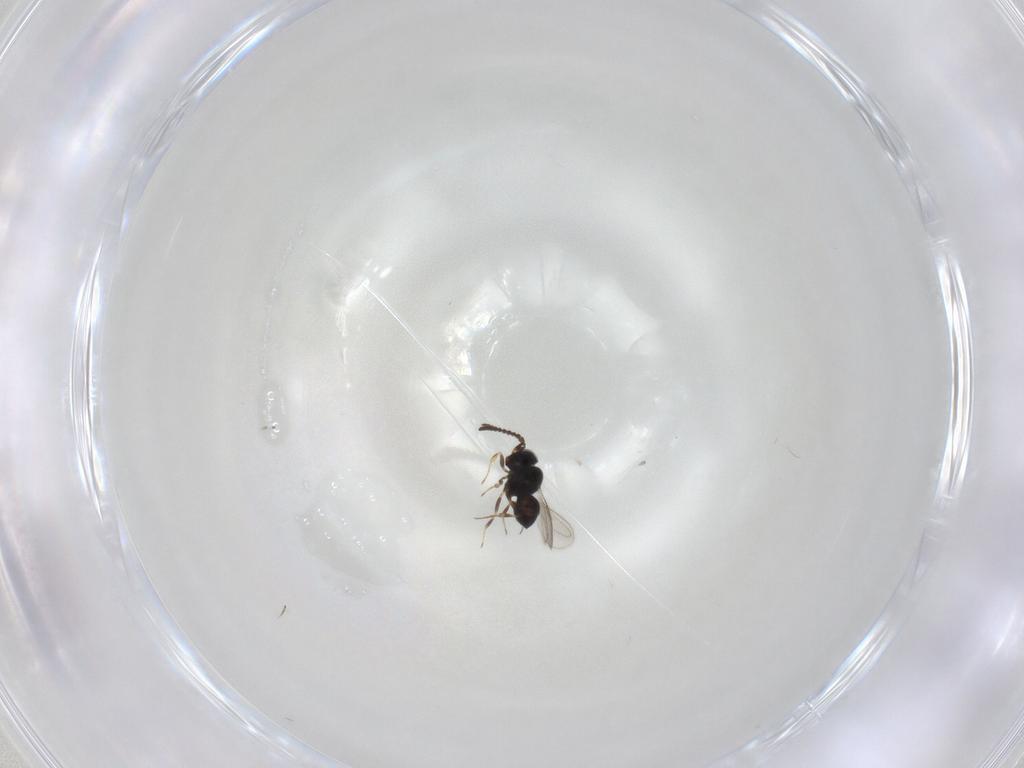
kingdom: Animalia
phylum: Arthropoda
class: Insecta
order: Hymenoptera
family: Scelionidae
